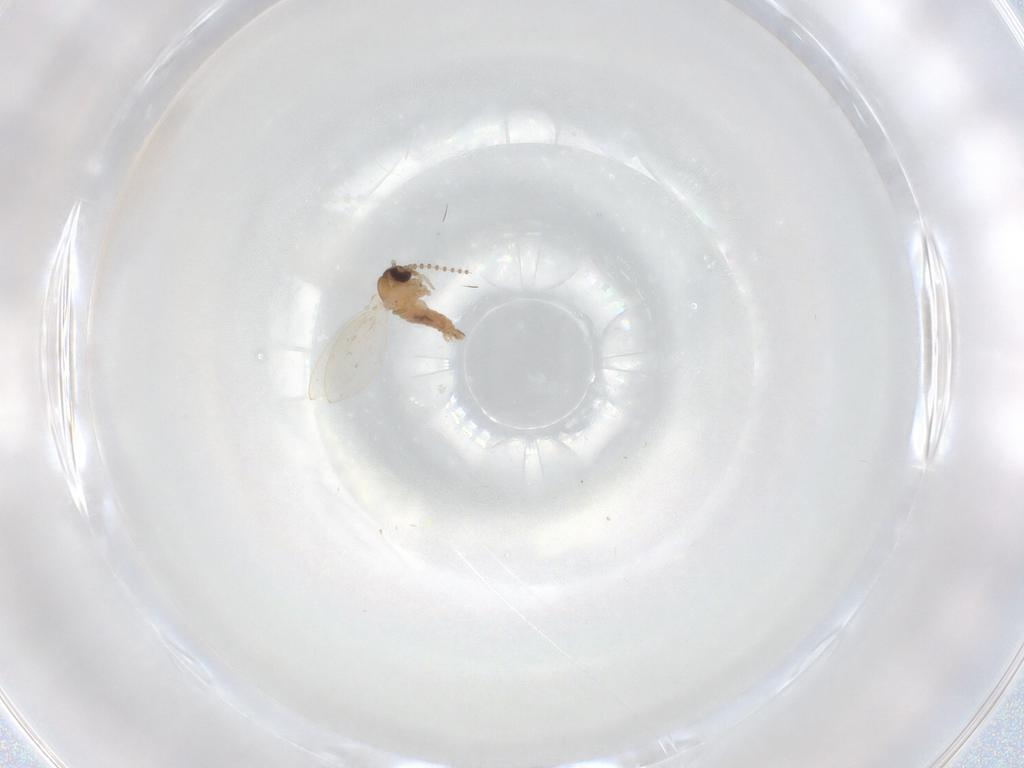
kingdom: Animalia
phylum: Arthropoda
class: Insecta
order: Diptera
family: Psychodidae
